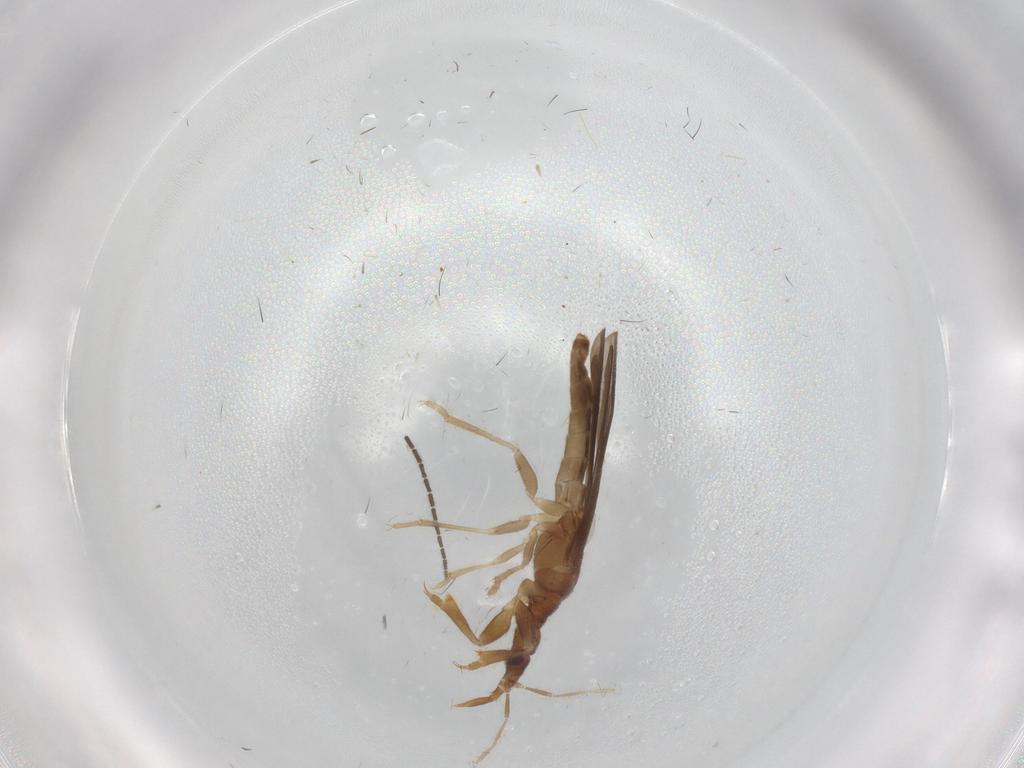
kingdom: Animalia
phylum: Arthropoda
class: Insecta
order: Hemiptera
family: Enicocephalidae
